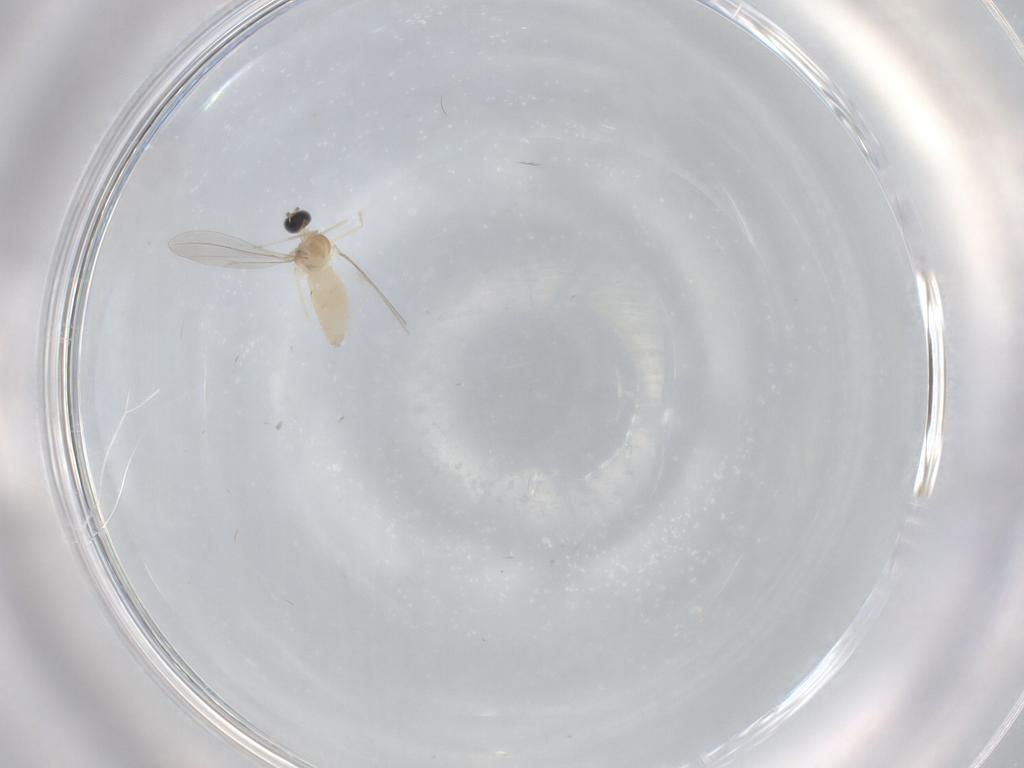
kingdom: Animalia
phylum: Arthropoda
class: Insecta
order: Diptera
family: Cecidomyiidae
